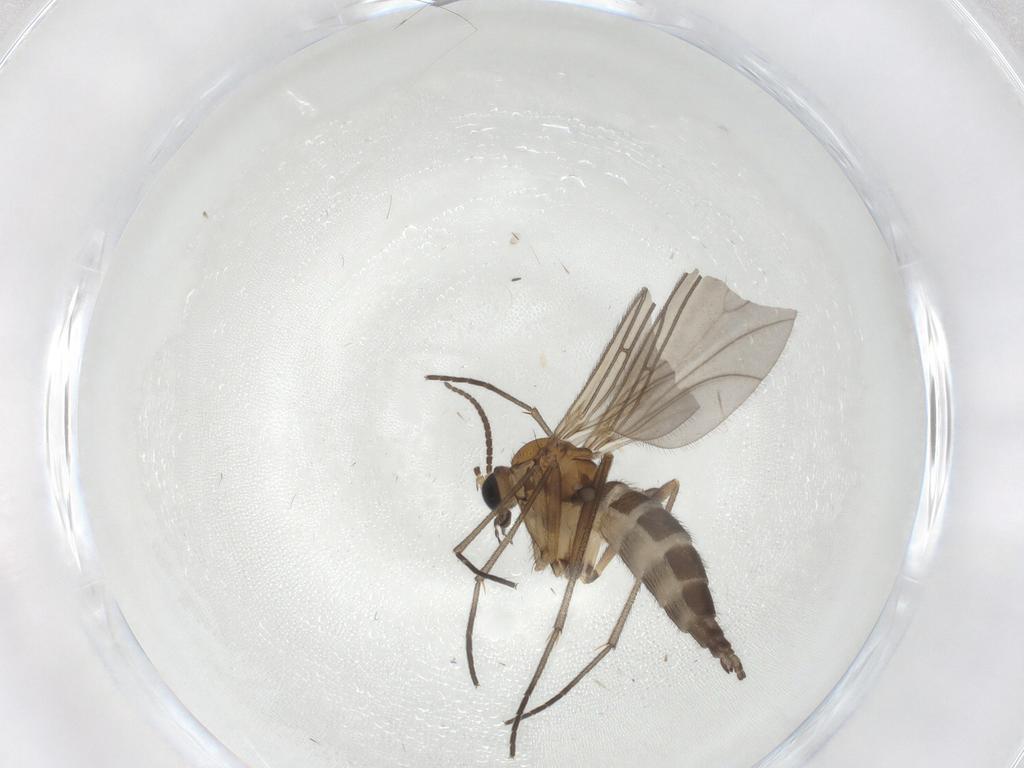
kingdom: Animalia
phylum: Arthropoda
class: Insecta
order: Diptera
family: Sciaridae
